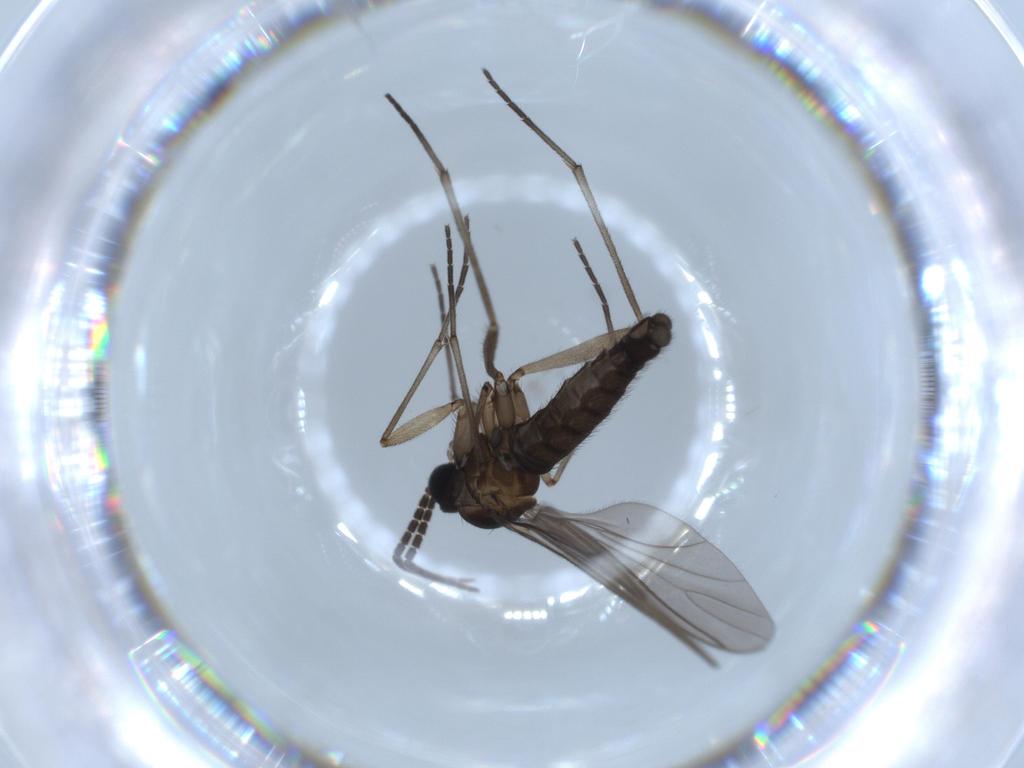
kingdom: Animalia
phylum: Arthropoda
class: Insecta
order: Diptera
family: Sciaridae
